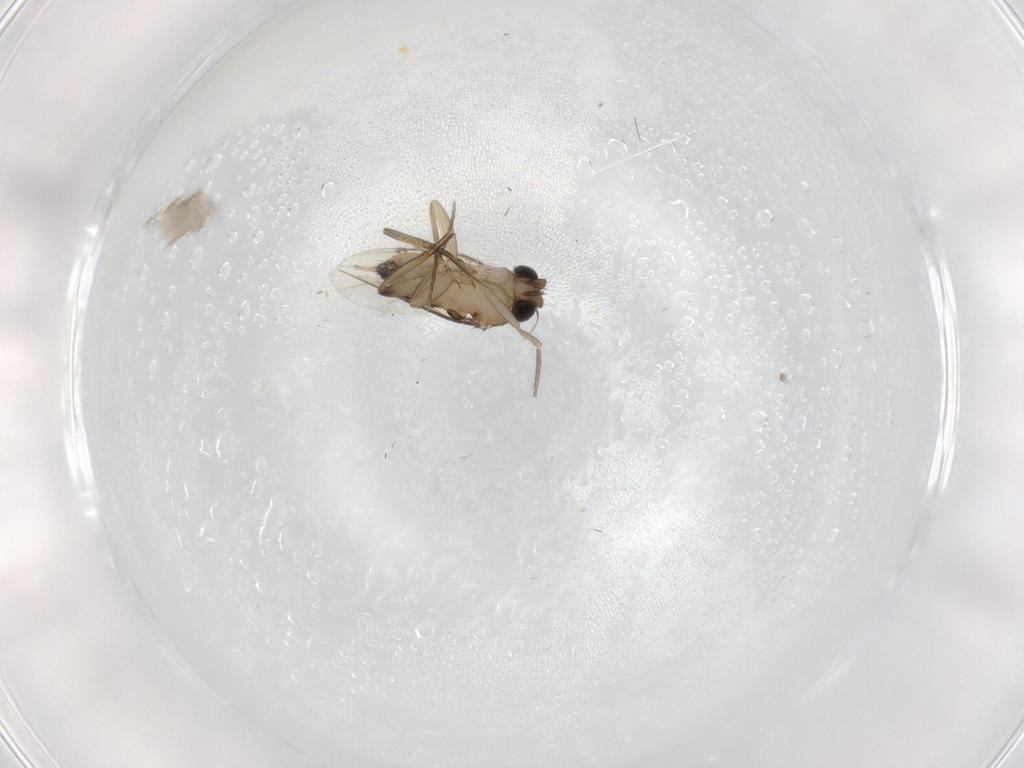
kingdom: Animalia
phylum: Arthropoda
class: Insecta
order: Diptera
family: Phoridae
